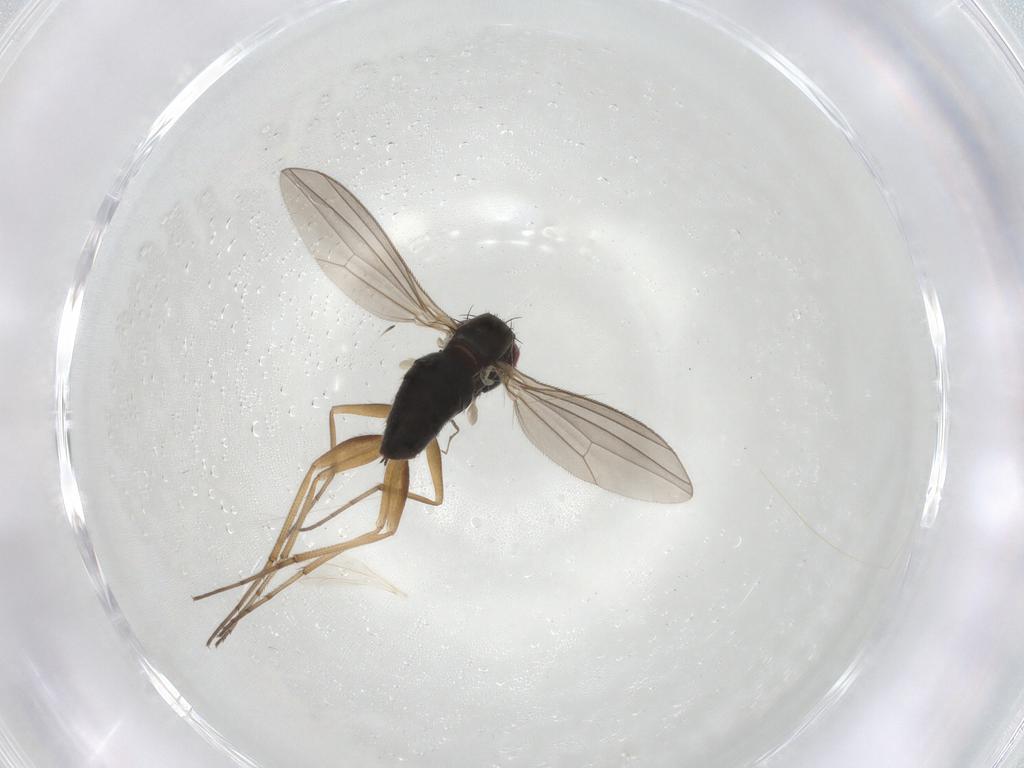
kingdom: Animalia
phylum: Arthropoda
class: Insecta
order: Diptera
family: Dolichopodidae
